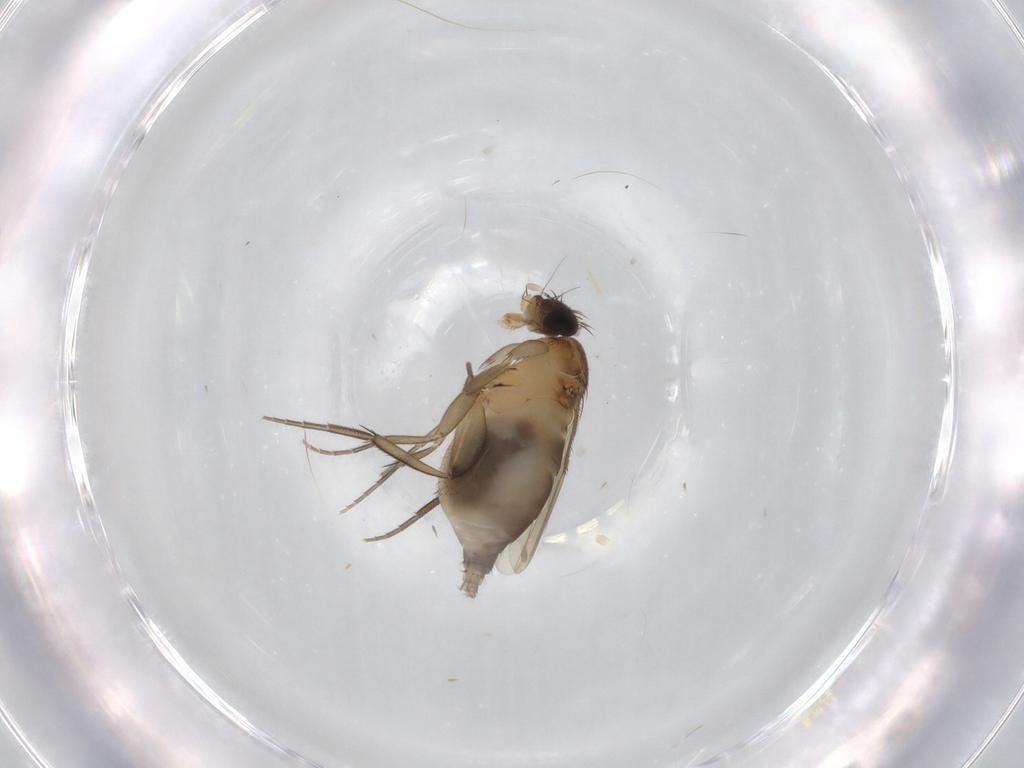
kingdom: Animalia
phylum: Arthropoda
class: Insecta
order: Diptera
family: Phoridae
